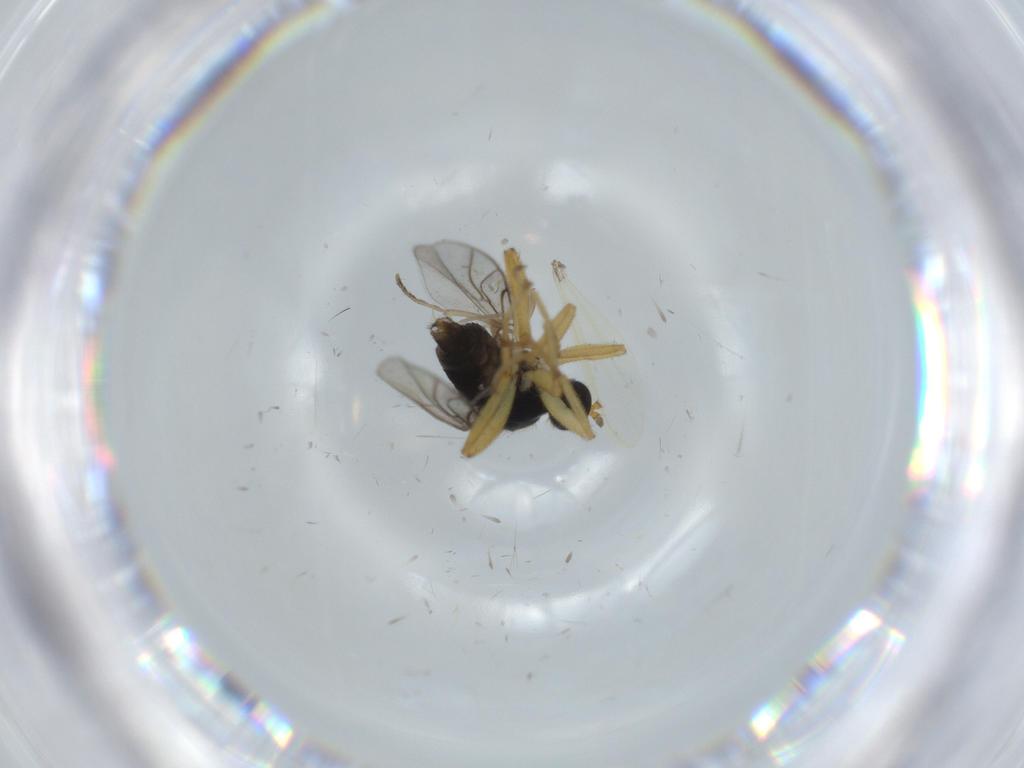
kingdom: Animalia
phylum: Arthropoda
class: Insecta
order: Diptera
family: Hybotidae
